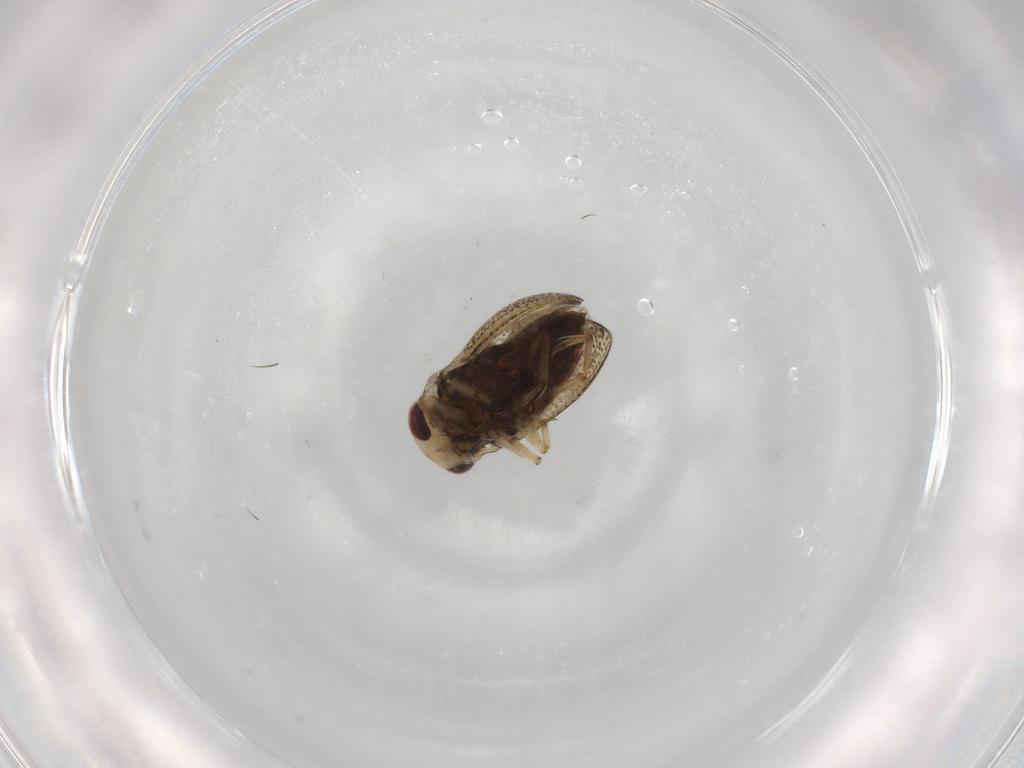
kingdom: Animalia
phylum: Arthropoda
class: Insecta
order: Hemiptera
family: Pleidae
